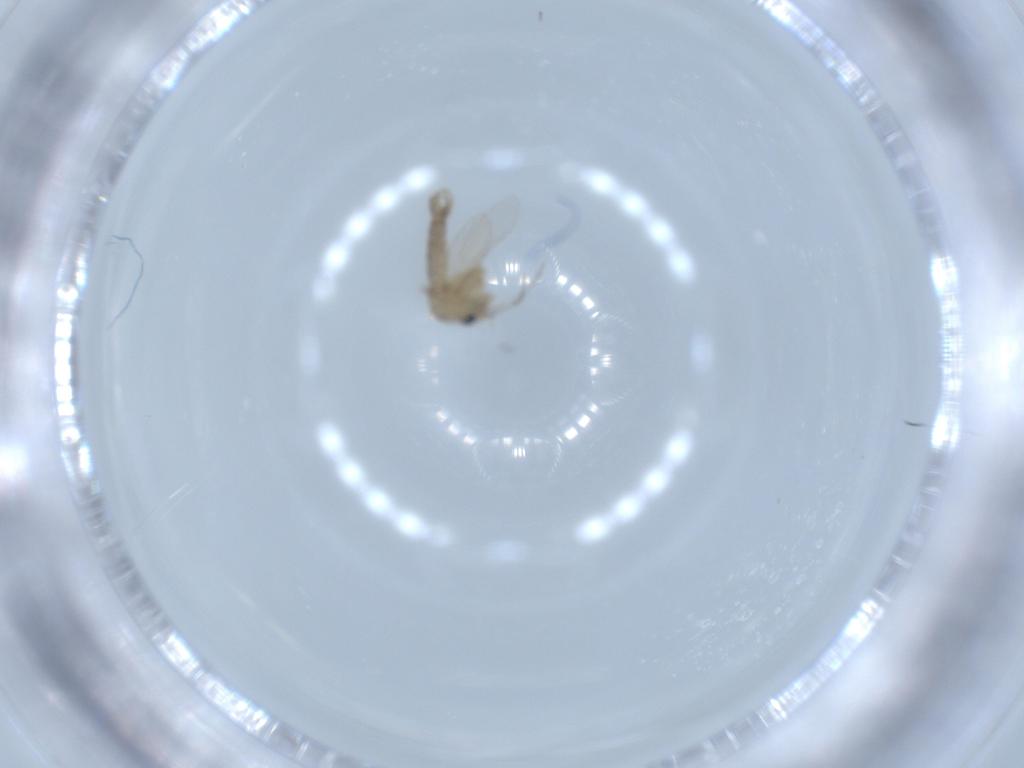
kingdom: Animalia
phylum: Arthropoda
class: Insecta
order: Diptera
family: Psychodidae
